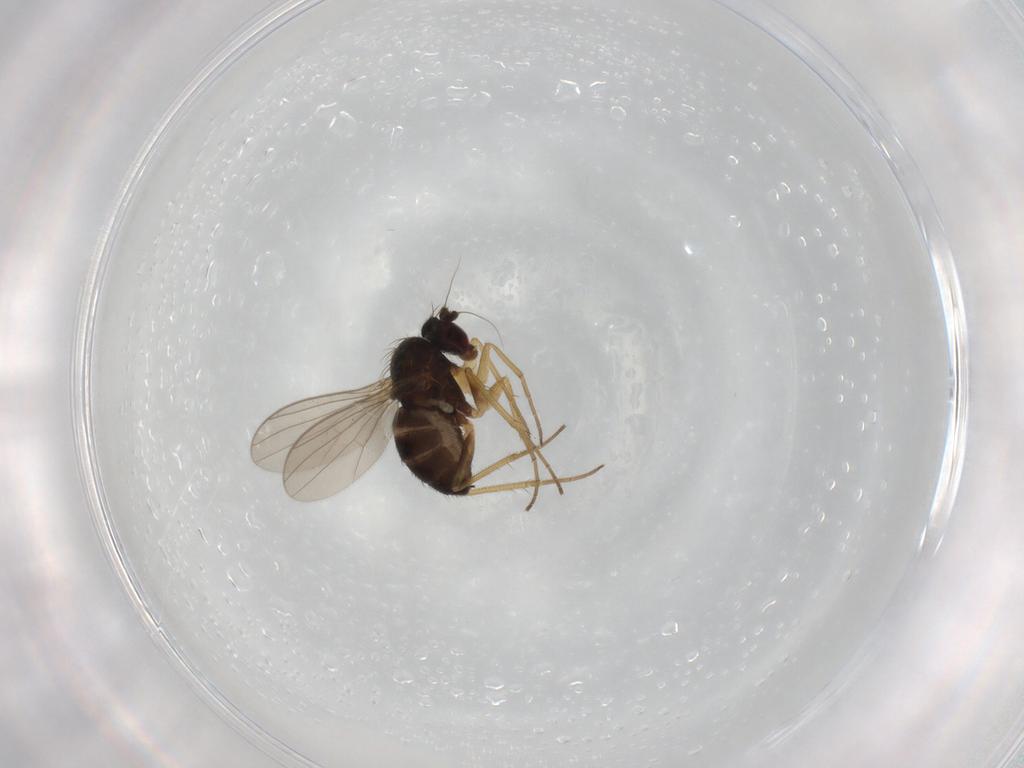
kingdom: Animalia
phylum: Arthropoda
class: Insecta
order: Diptera
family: Dolichopodidae
